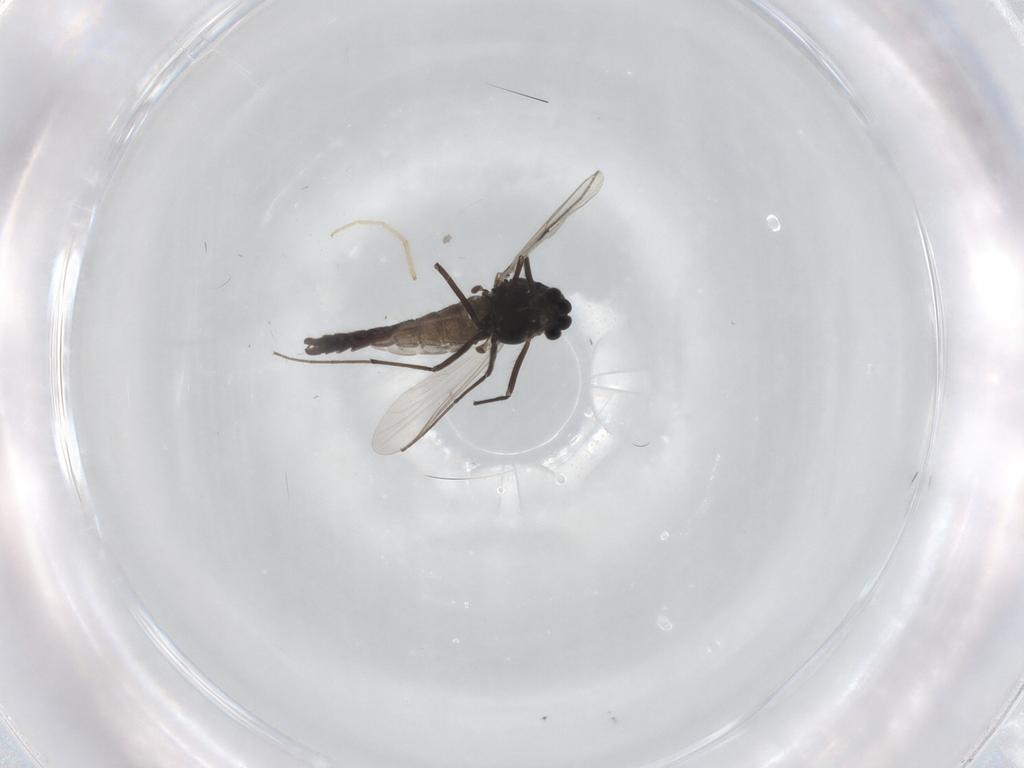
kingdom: Animalia
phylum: Arthropoda
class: Insecta
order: Diptera
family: Chironomidae
